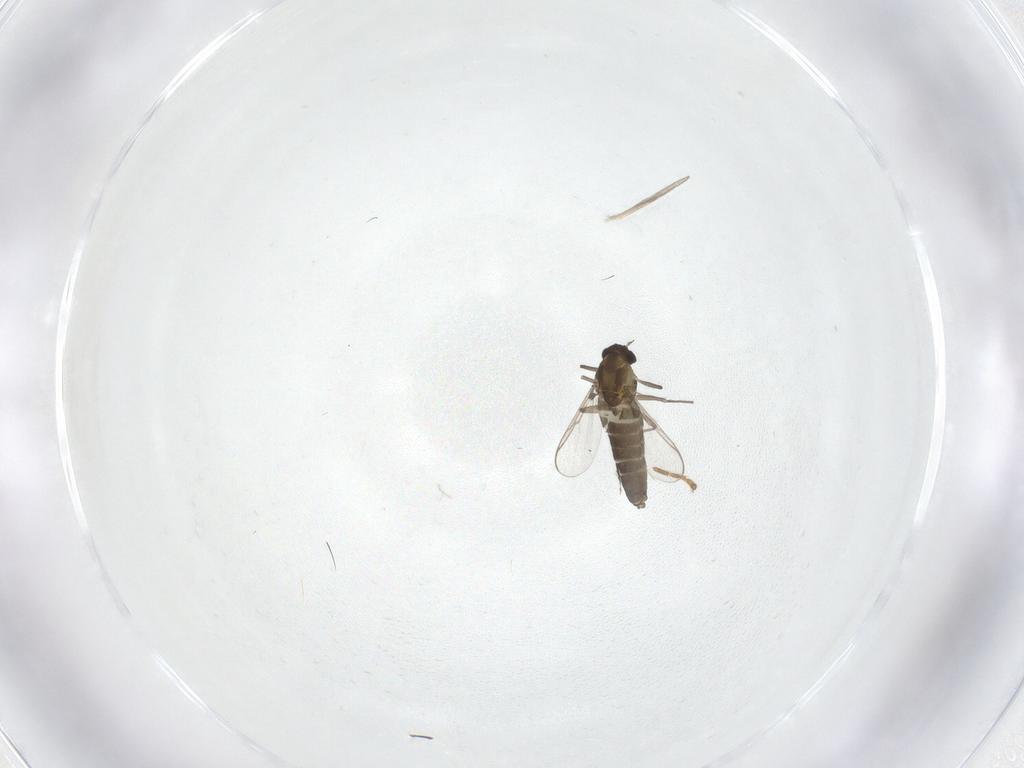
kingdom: Animalia
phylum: Arthropoda
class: Insecta
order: Diptera
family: Chironomidae
